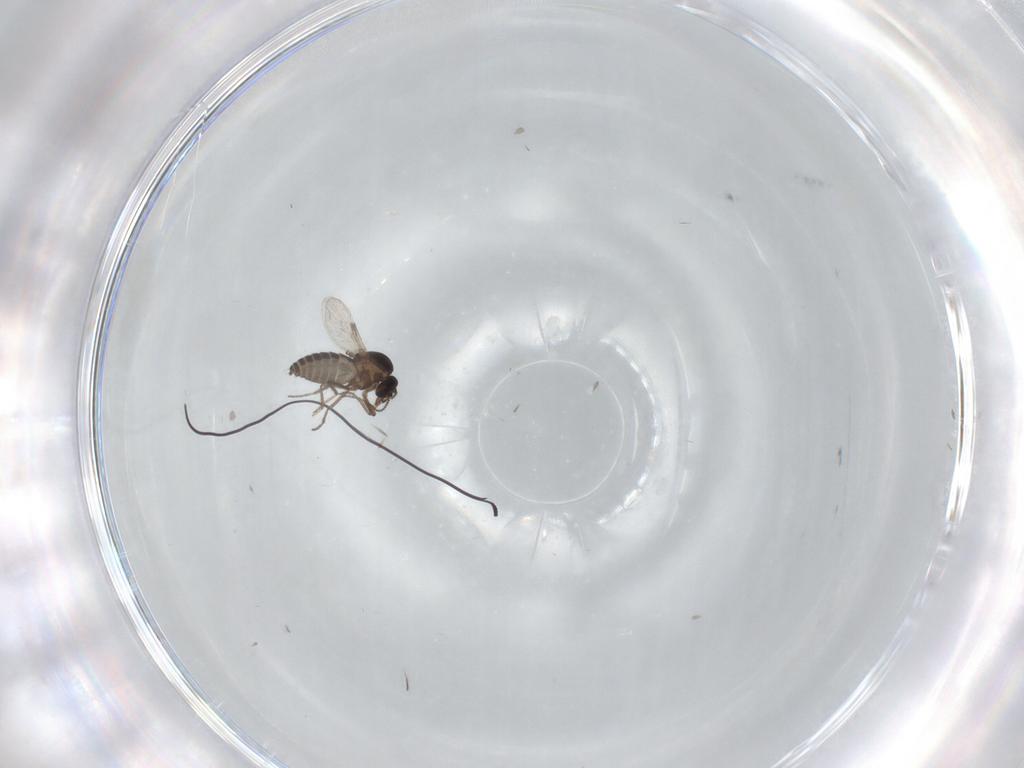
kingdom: Animalia
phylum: Arthropoda
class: Insecta
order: Diptera
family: Ceratopogonidae
